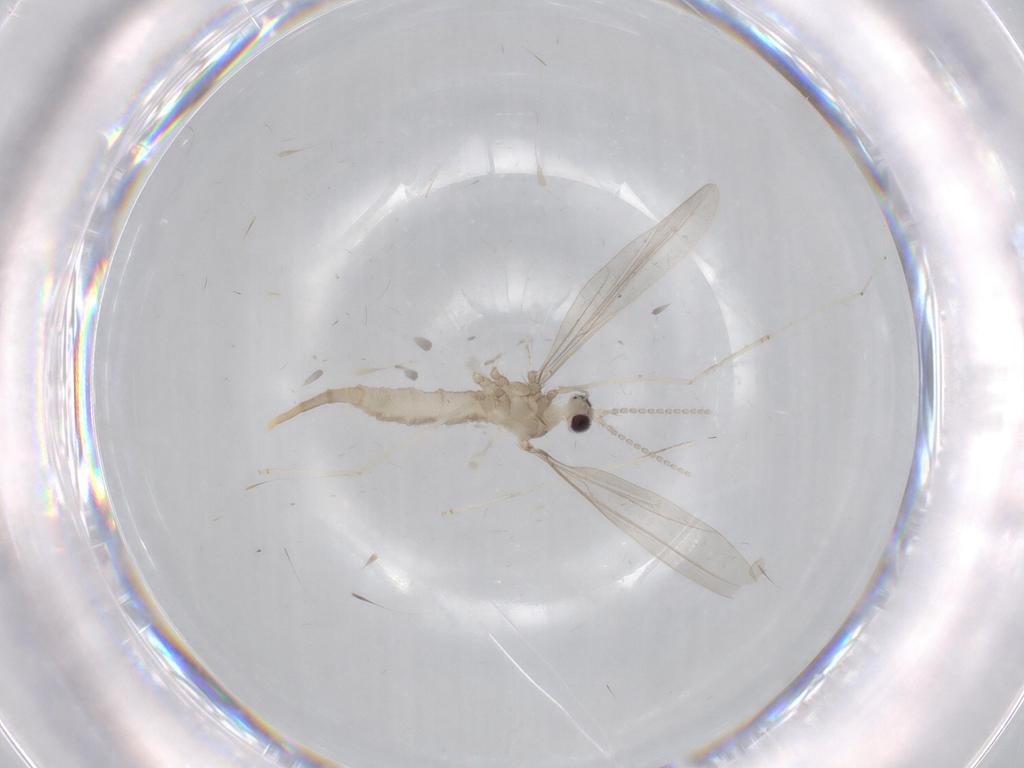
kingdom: Animalia
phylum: Arthropoda
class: Insecta
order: Diptera
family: Cecidomyiidae
